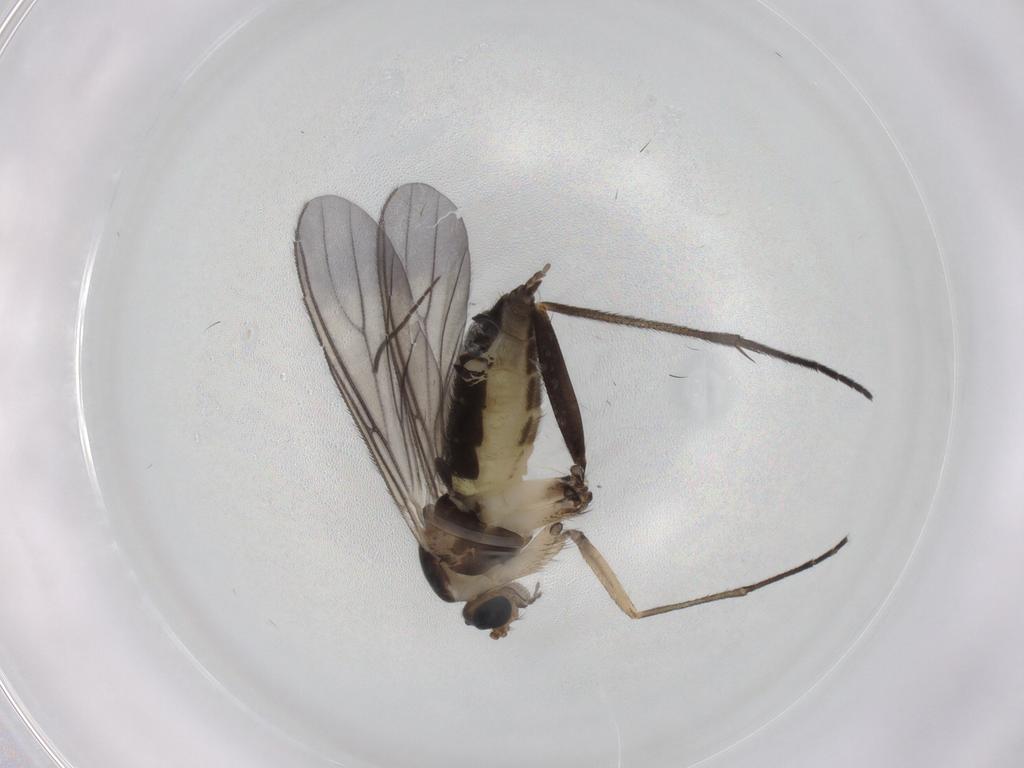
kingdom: Animalia
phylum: Arthropoda
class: Insecta
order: Diptera
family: Sciaridae
